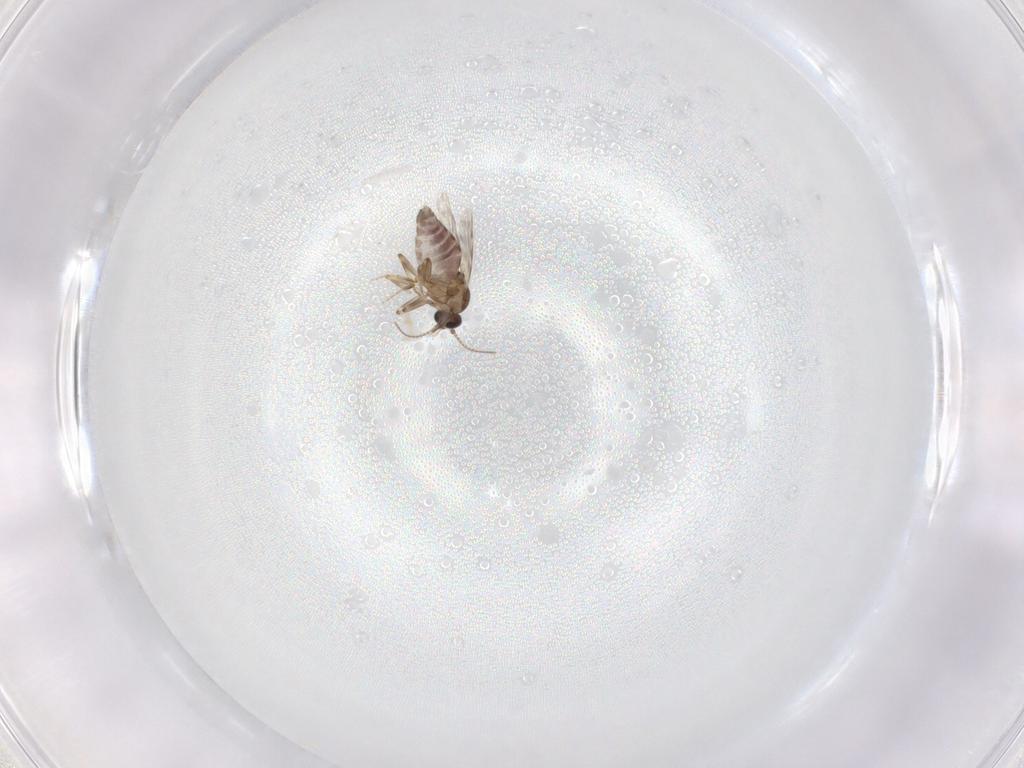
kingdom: Animalia
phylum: Arthropoda
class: Insecta
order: Diptera
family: Ceratopogonidae
